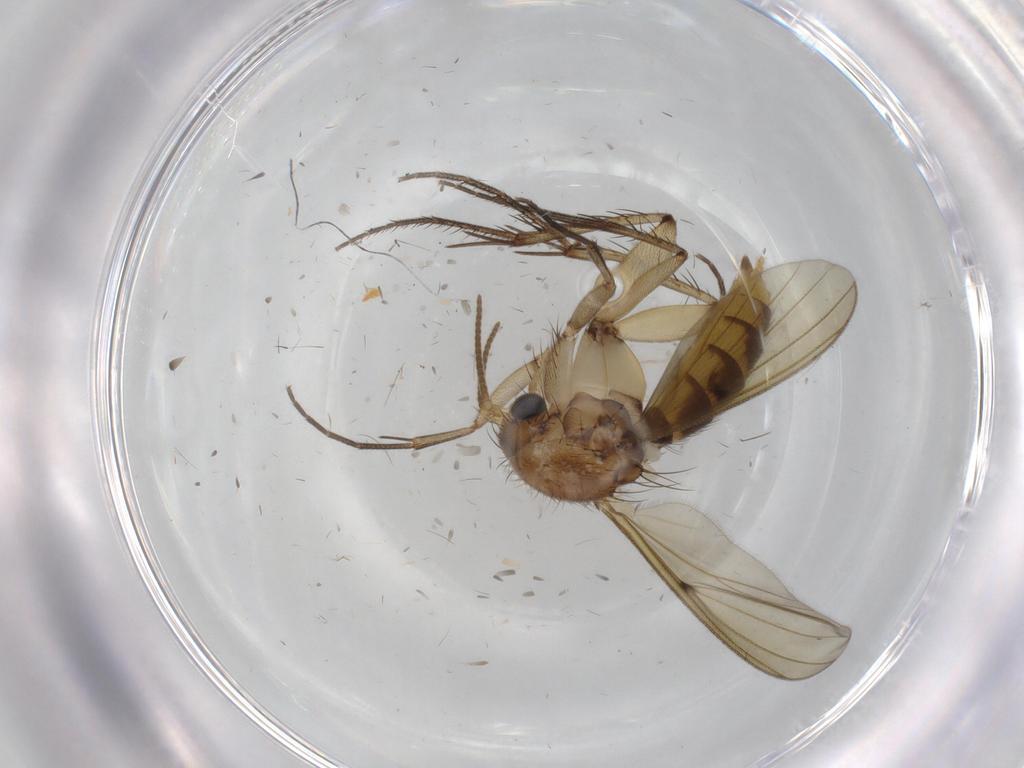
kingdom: Animalia
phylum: Arthropoda
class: Insecta
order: Diptera
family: Mycetophilidae
